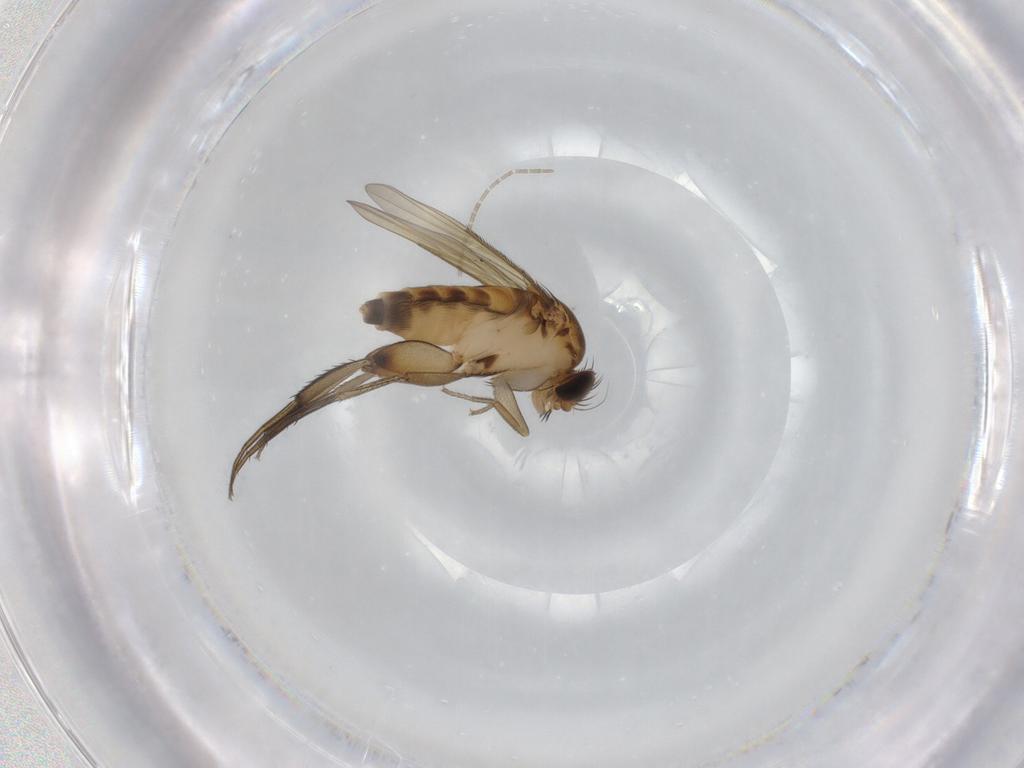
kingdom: Animalia
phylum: Arthropoda
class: Insecta
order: Diptera
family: Phoridae
